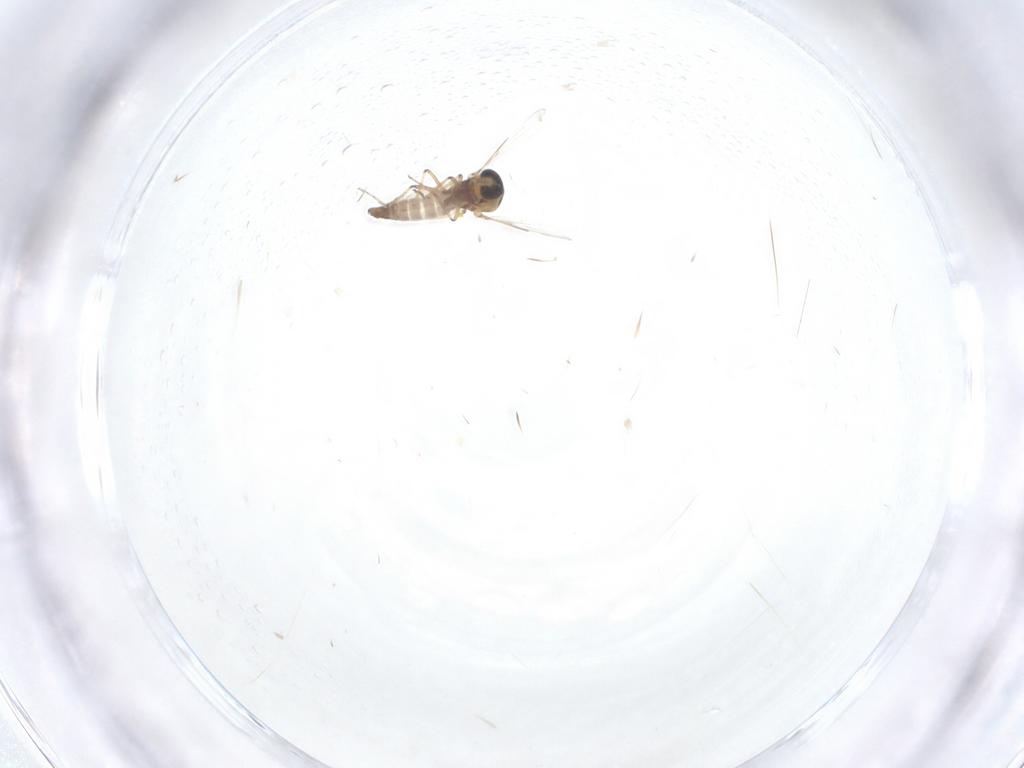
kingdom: Animalia
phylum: Arthropoda
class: Insecta
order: Diptera
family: Ceratopogonidae
